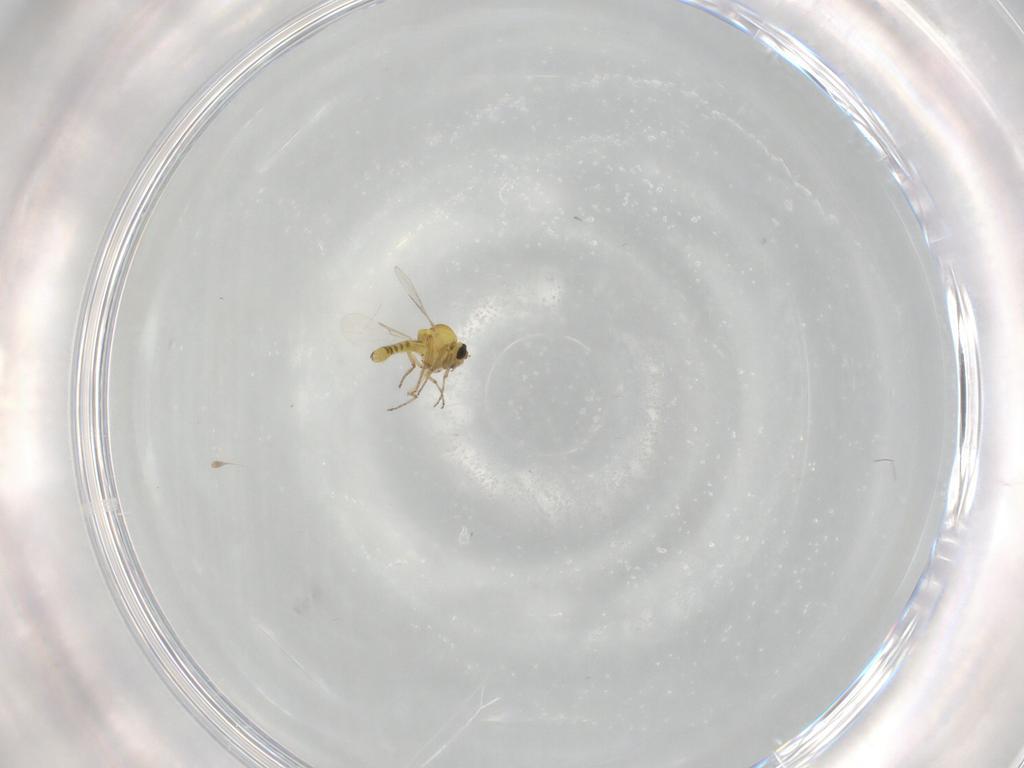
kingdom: Animalia
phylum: Arthropoda
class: Insecta
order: Diptera
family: Ceratopogonidae
